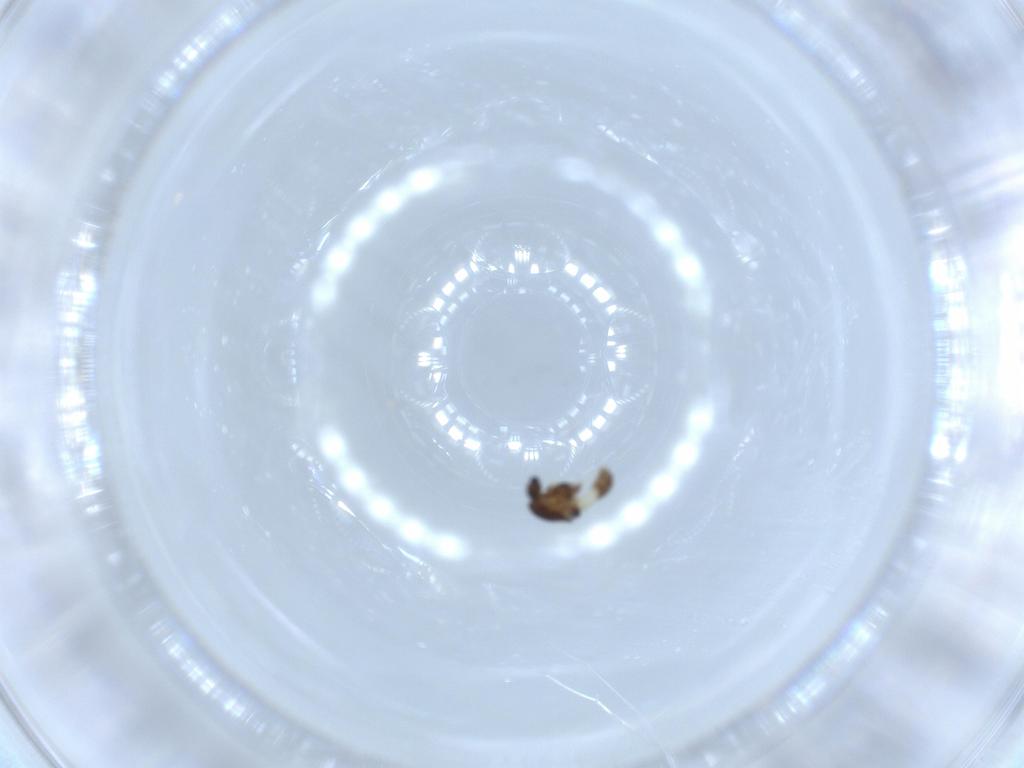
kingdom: Animalia
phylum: Arthropoda
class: Insecta
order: Diptera
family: Chironomidae
